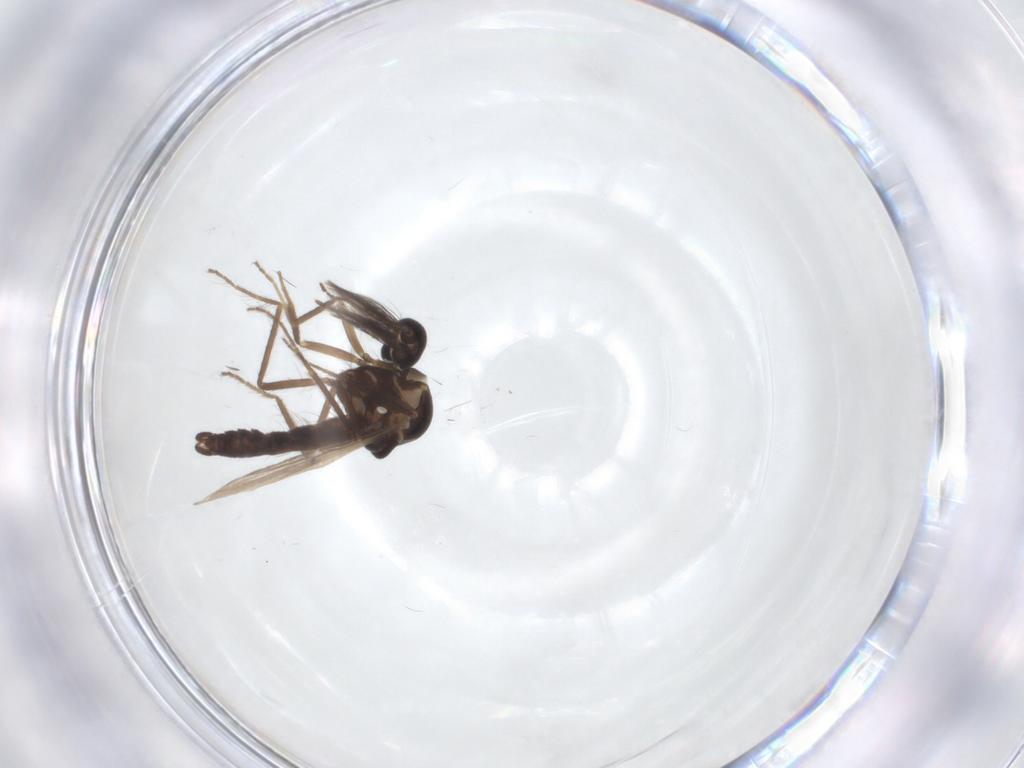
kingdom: Animalia
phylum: Arthropoda
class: Insecta
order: Diptera
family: Ceratopogonidae
